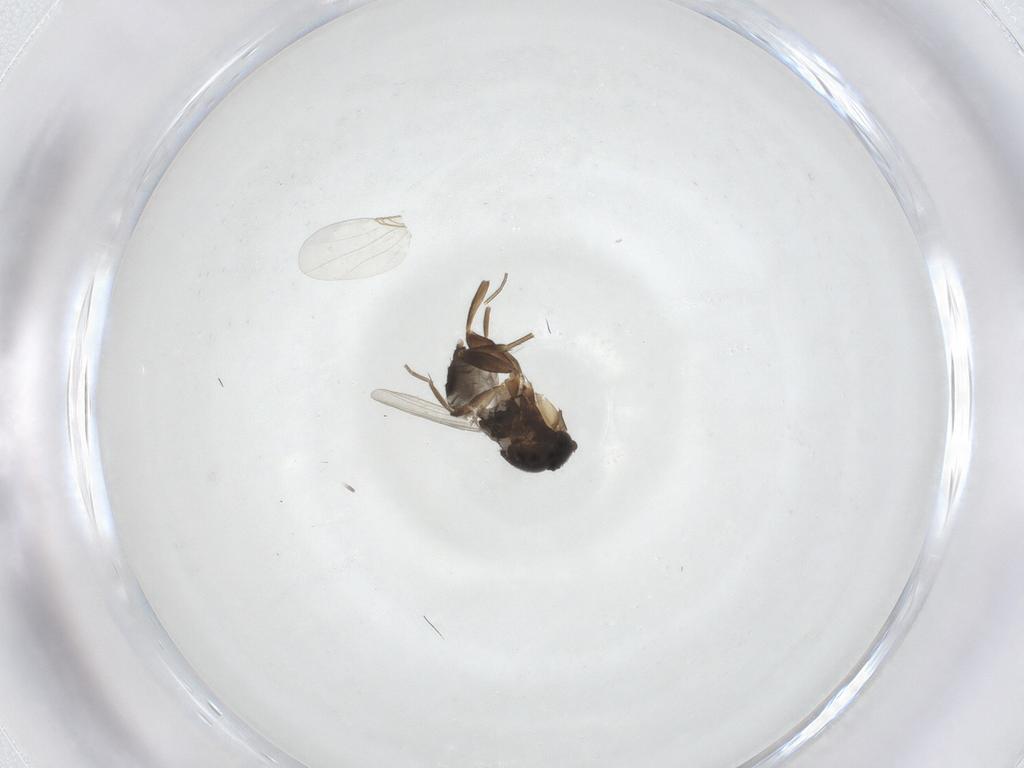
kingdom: Animalia
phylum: Arthropoda
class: Insecta
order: Diptera
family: Phoridae
